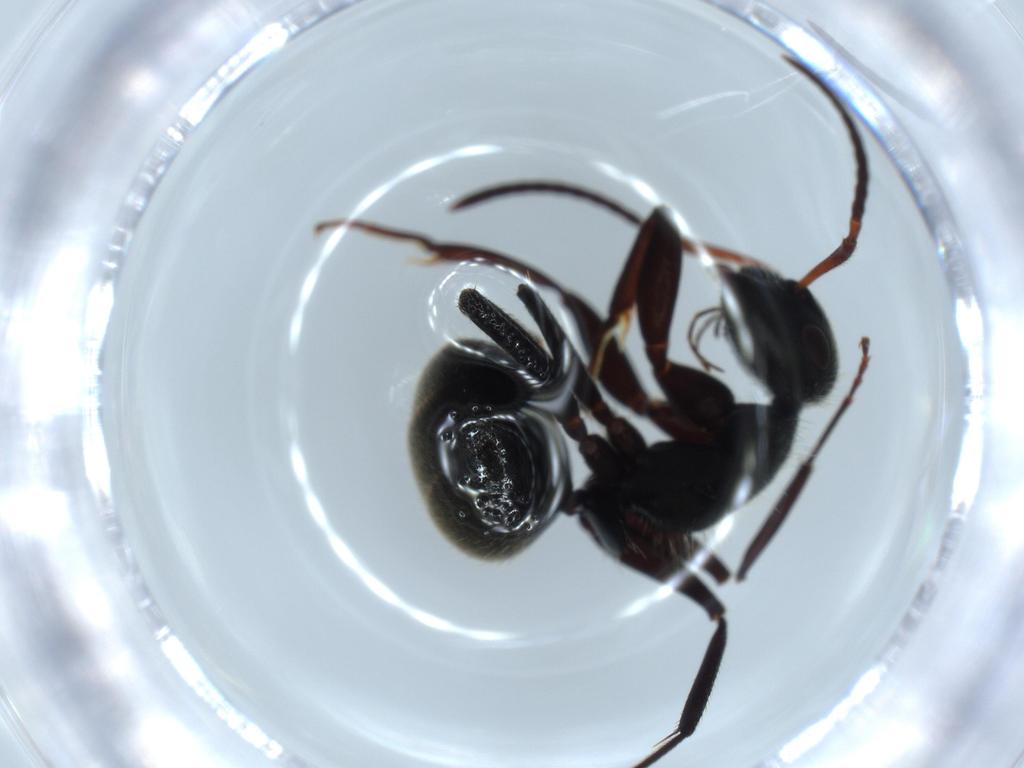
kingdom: Animalia
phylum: Arthropoda
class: Insecta
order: Hymenoptera
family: Formicidae
